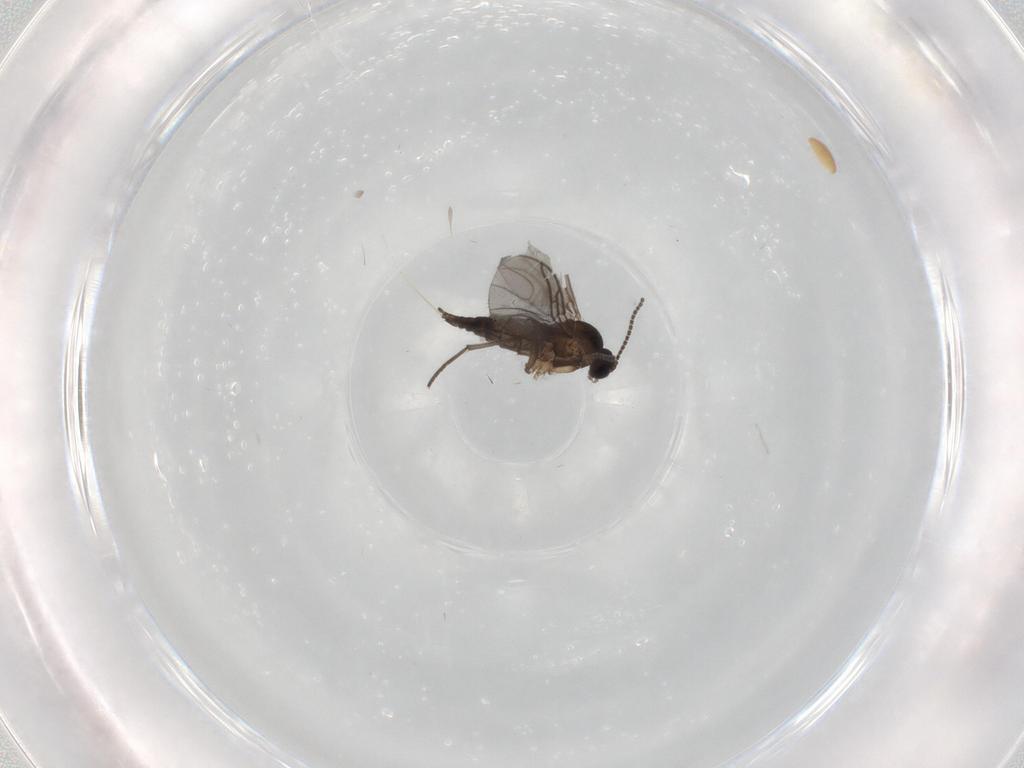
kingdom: Animalia
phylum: Arthropoda
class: Insecta
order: Diptera
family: Sciaridae
